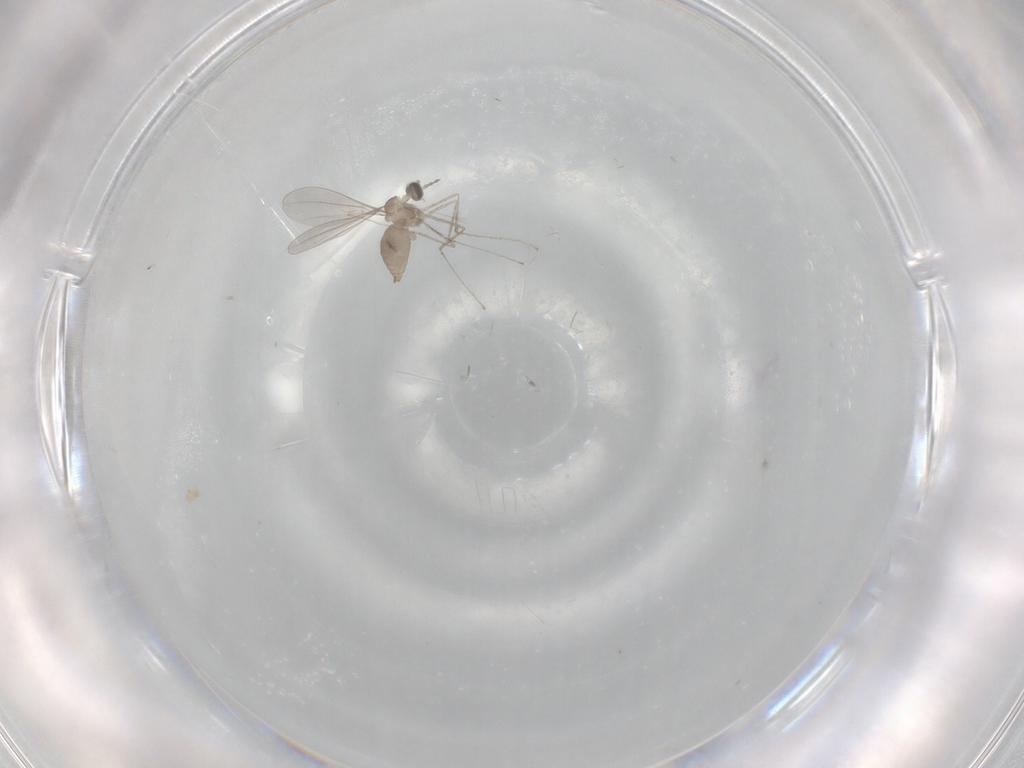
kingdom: Animalia
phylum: Arthropoda
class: Insecta
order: Diptera
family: Cecidomyiidae
